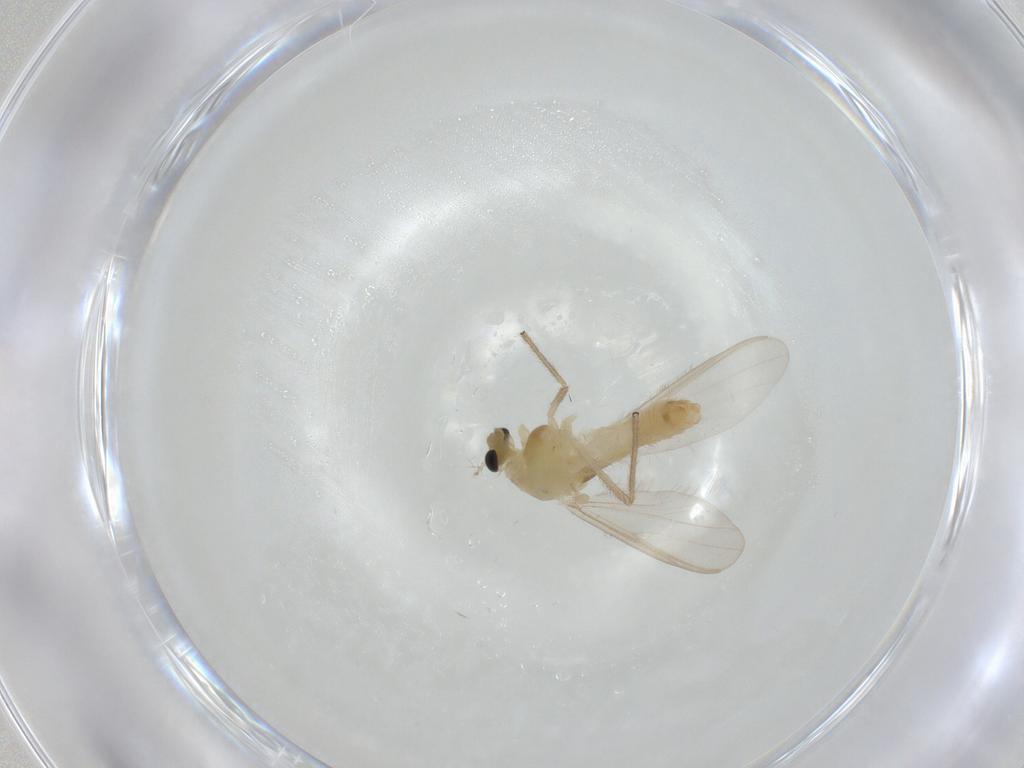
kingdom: Animalia
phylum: Arthropoda
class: Insecta
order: Diptera
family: Chironomidae
